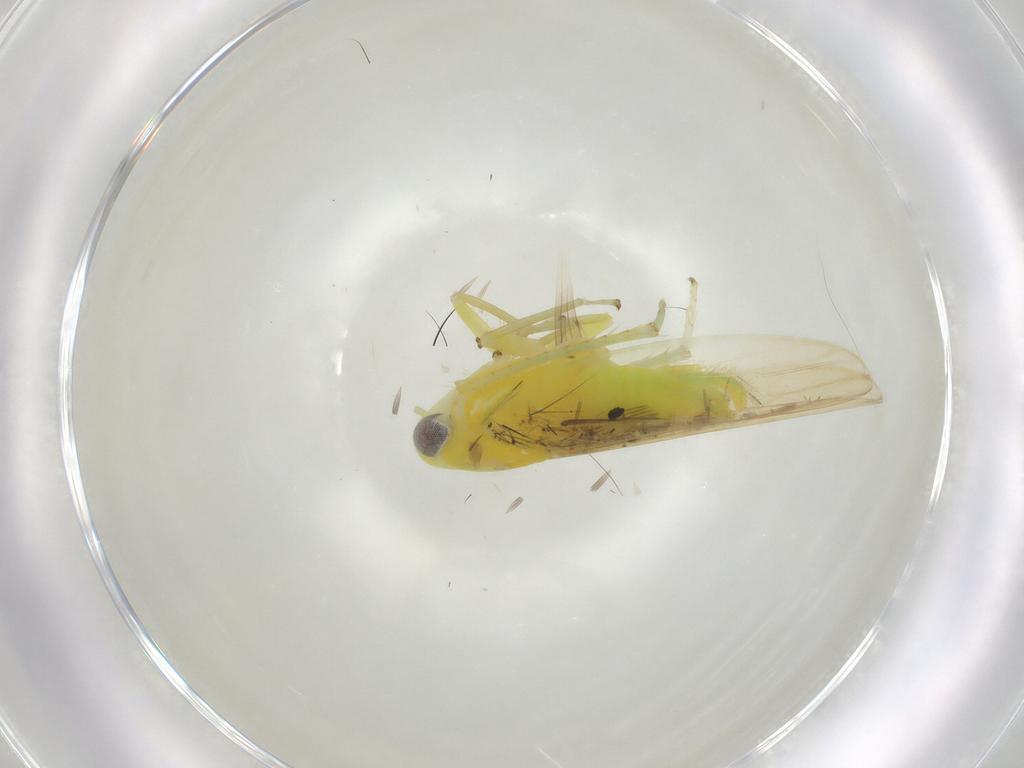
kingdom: Animalia
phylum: Arthropoda
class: Insecta
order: Hemiptera
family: Cicadellidae
